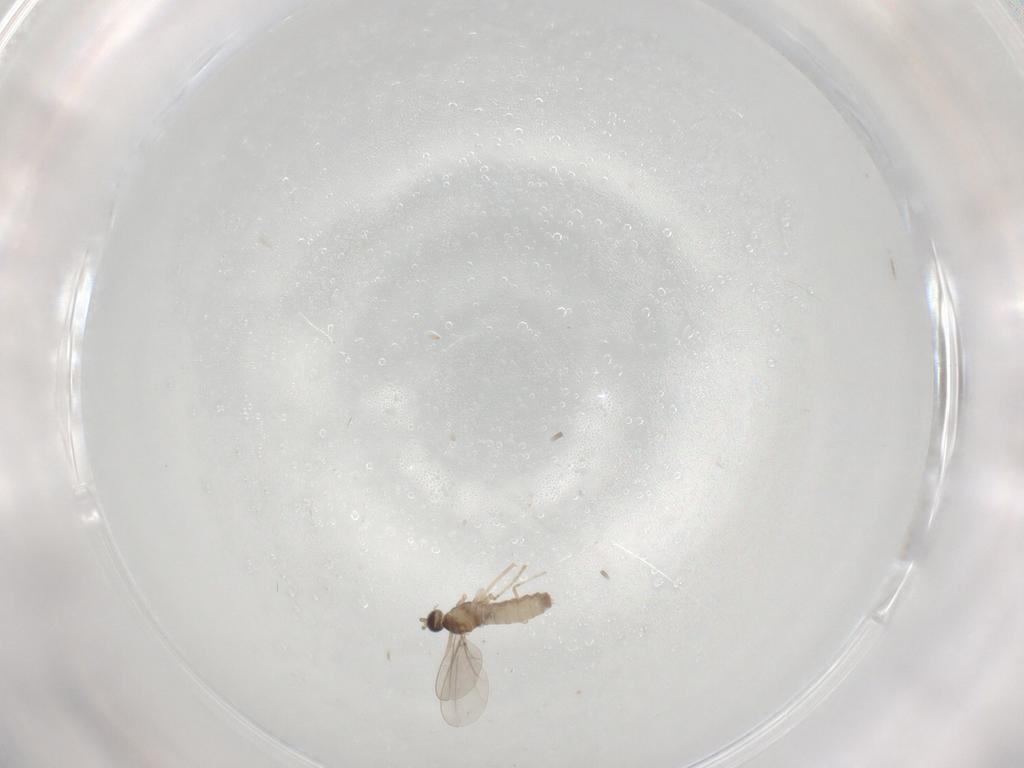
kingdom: Animalia
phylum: Arthropoda
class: Insecta
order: Diptera
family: Cecidomyiidae
